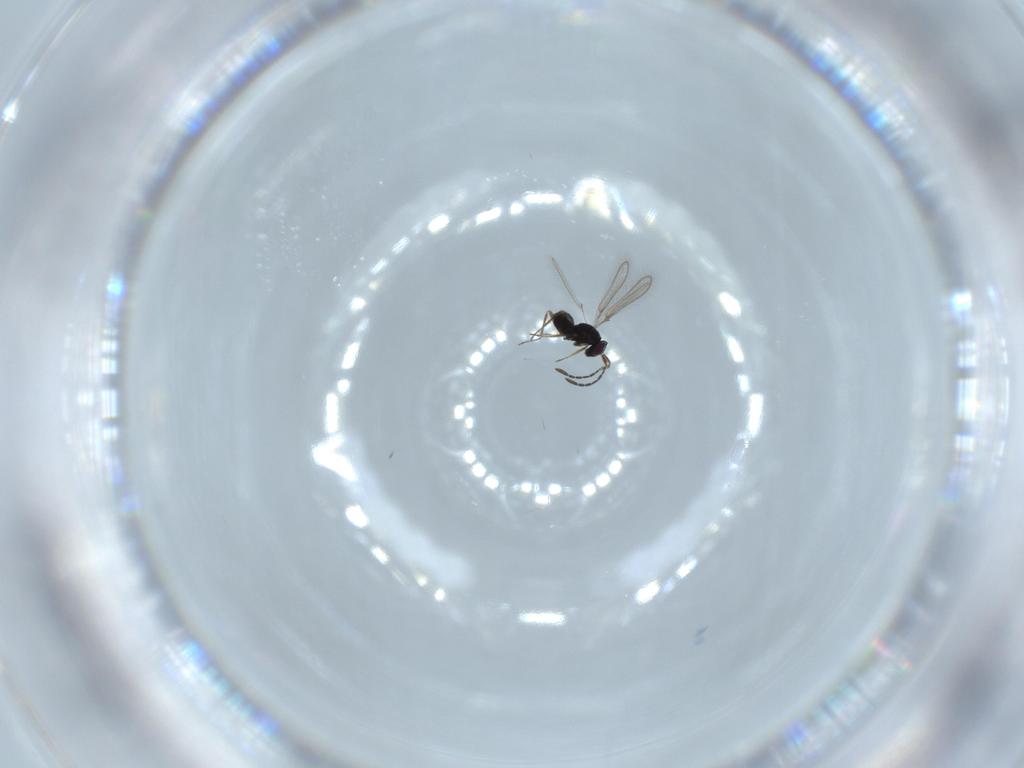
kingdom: Animalia
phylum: Arthropoda
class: Insecta
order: Hymenoptera
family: Mymaridae
